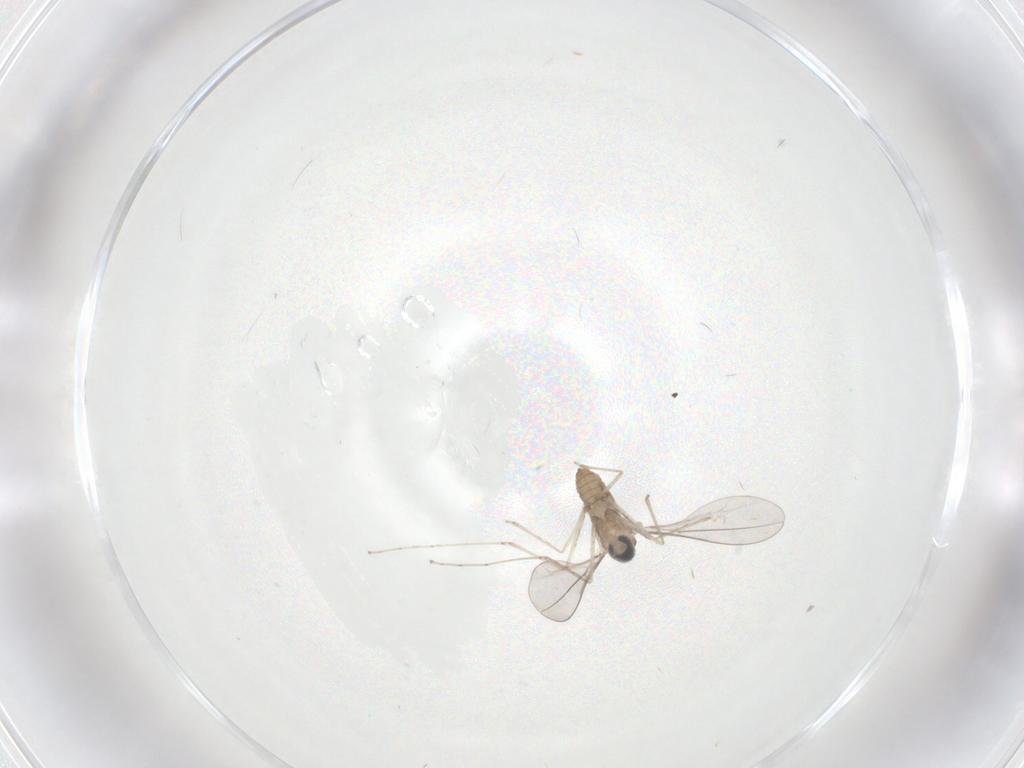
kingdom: Animalia
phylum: Arthropoda
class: Insecta
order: Diptera
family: Cecidomyiidae
